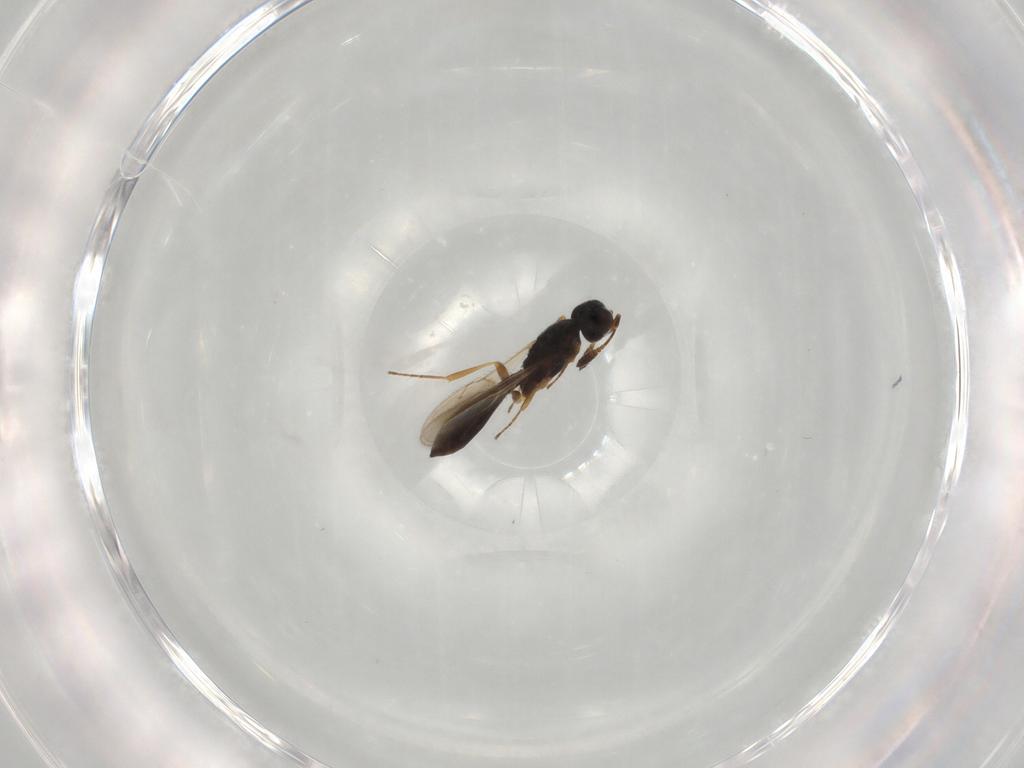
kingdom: Animalia
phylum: Arthropoda
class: Insecta
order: Hymenoptera
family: Scelionidae
